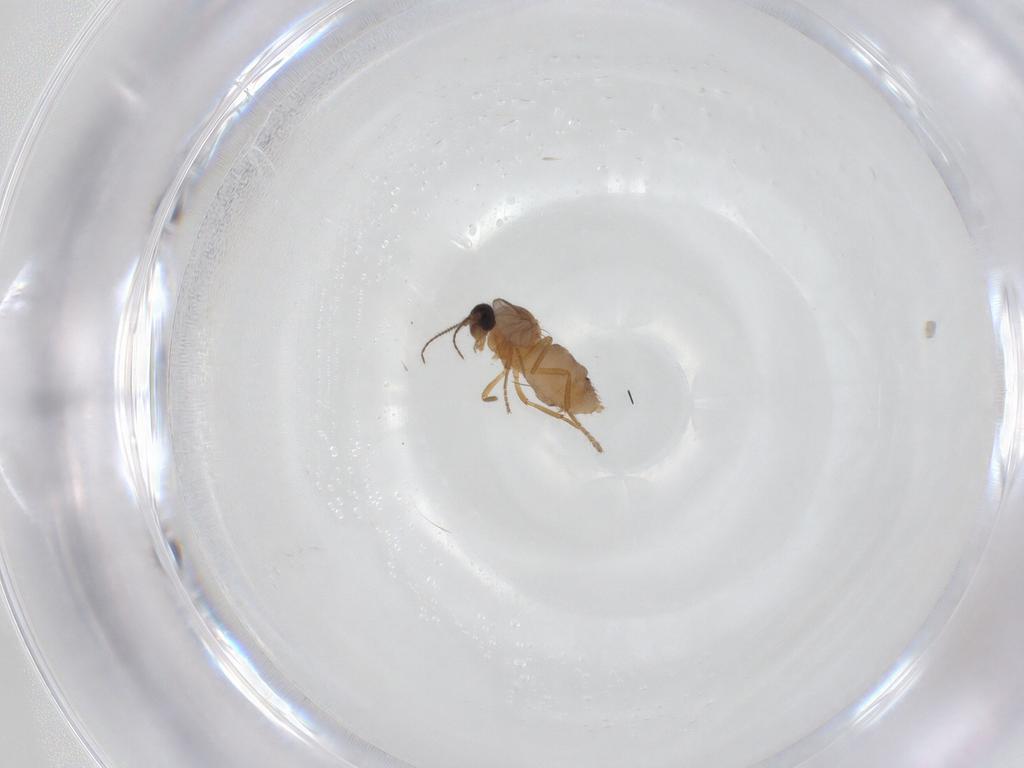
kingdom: Animalia
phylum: Arthropoda
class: Insecta
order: Diptera
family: Ceratopogonidae
